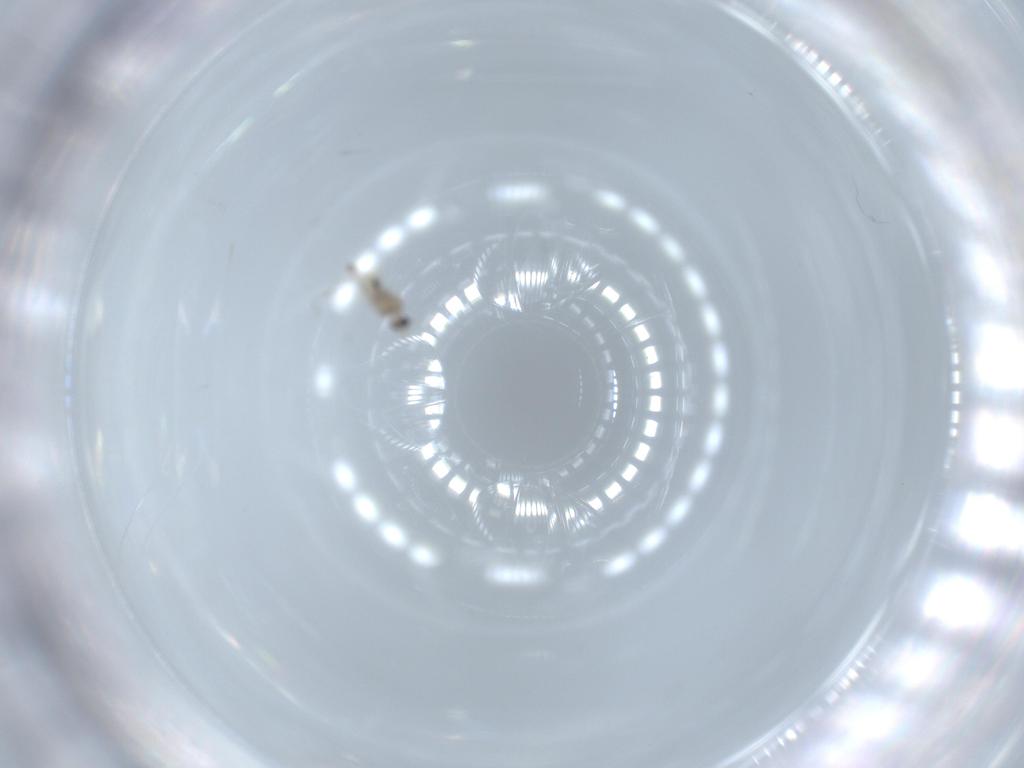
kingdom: Animalia
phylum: Arthropoda
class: Insecta
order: Diptera
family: Cecidomyiidae
